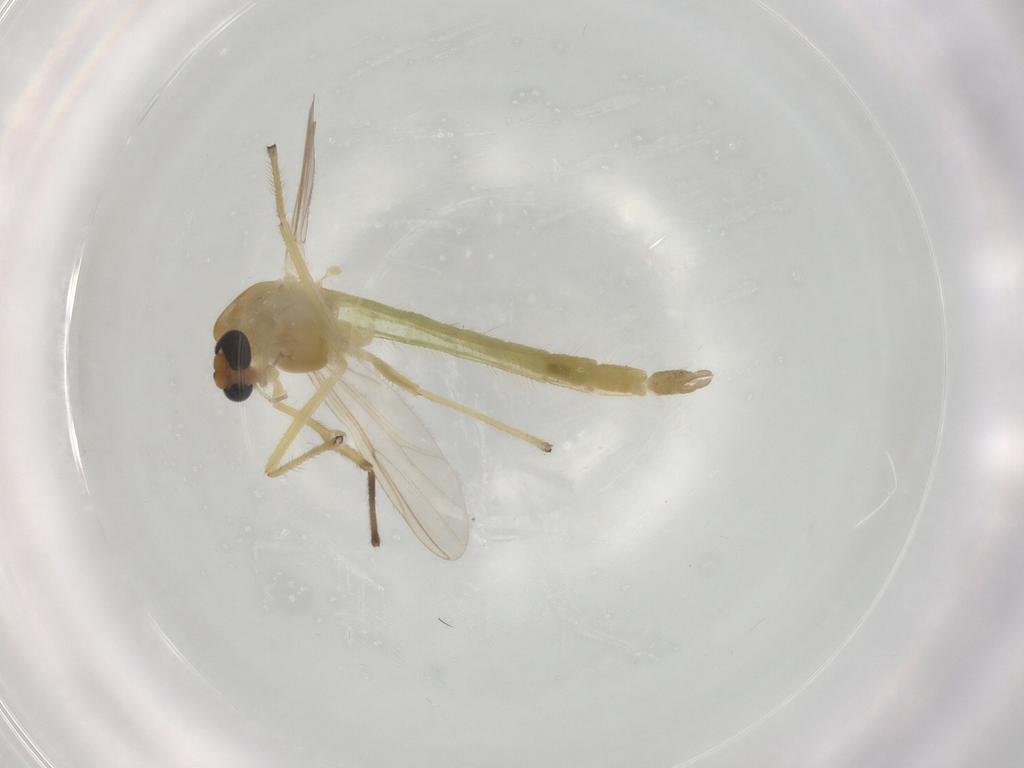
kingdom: Animalia
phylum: Arthropoda
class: Insecta
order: Diptera
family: Chironomidae
